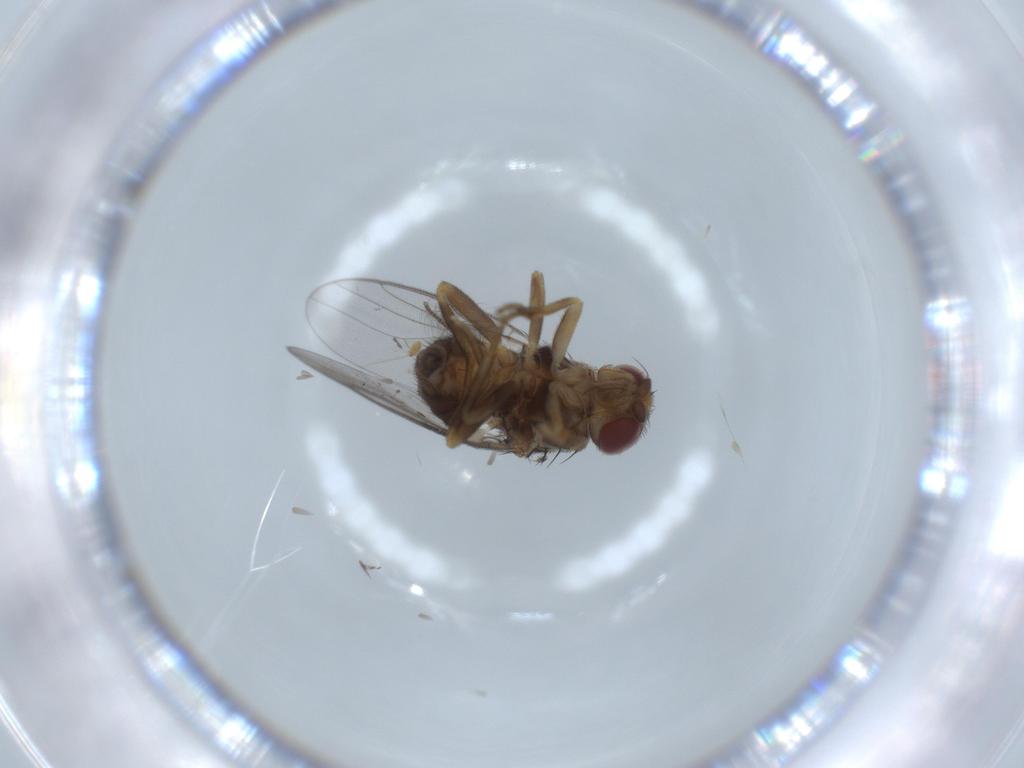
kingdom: Animalia
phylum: Arthropoda
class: Insecta
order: Diptera
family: Chloropidae
